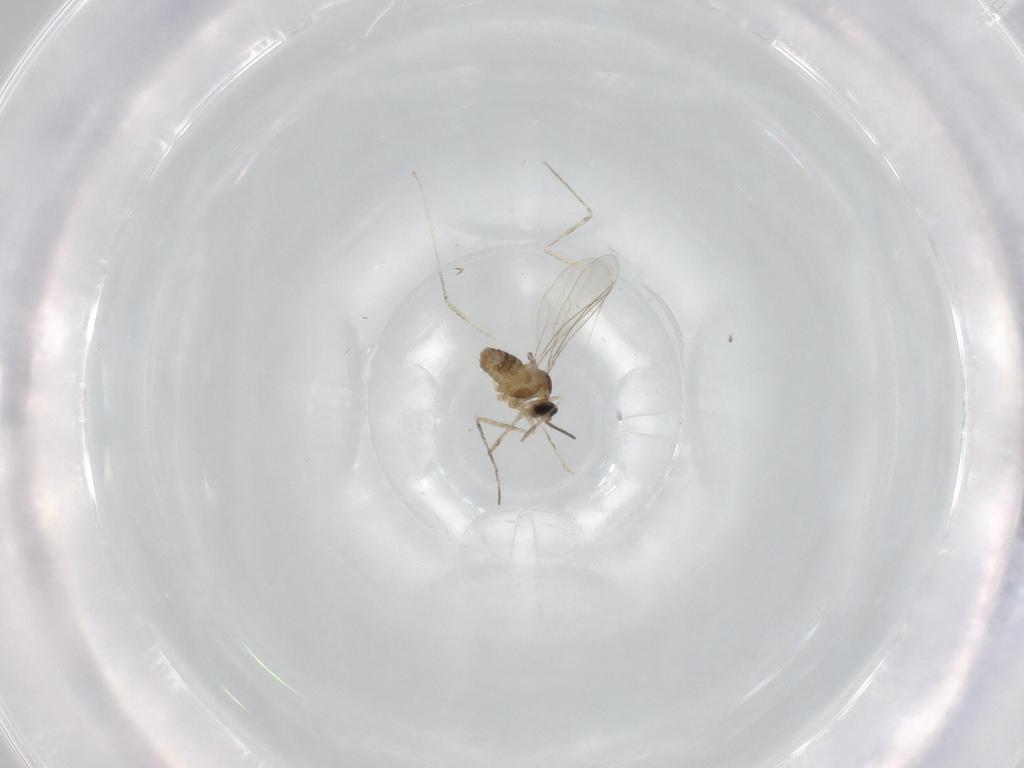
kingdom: Animalia
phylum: Arthropoda
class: Insecta
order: Diptera
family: Cecidomyiidae
